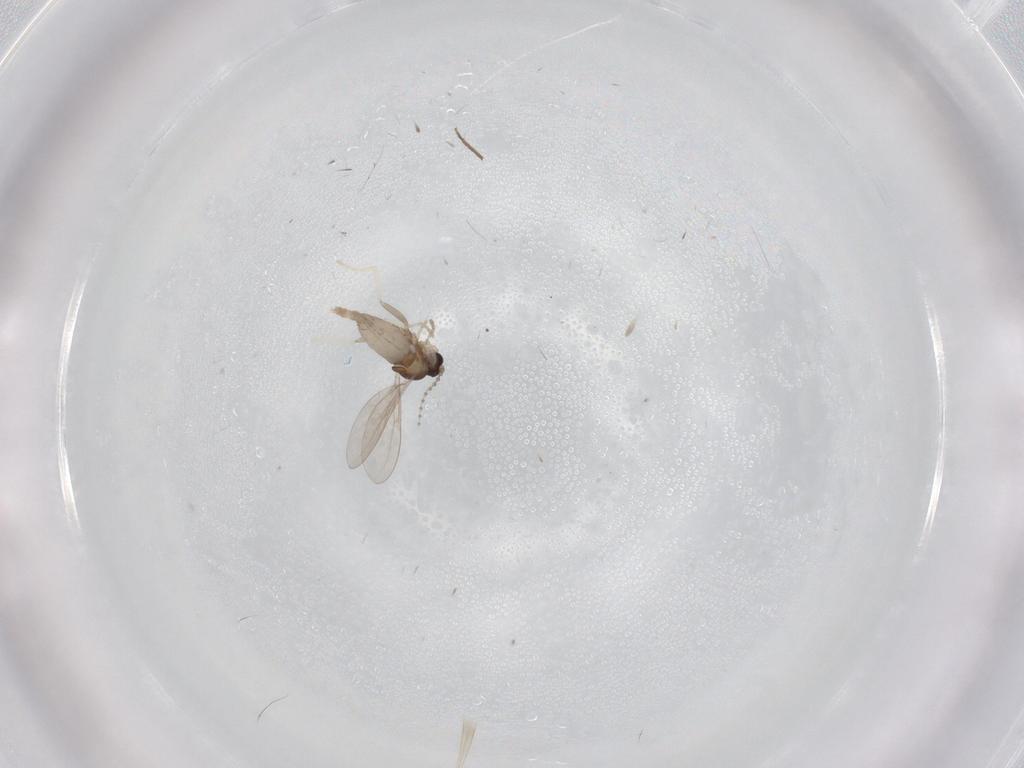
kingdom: Animalia
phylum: Arthropoda
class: Insecta
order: Diptera
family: Cecidomyiidae
